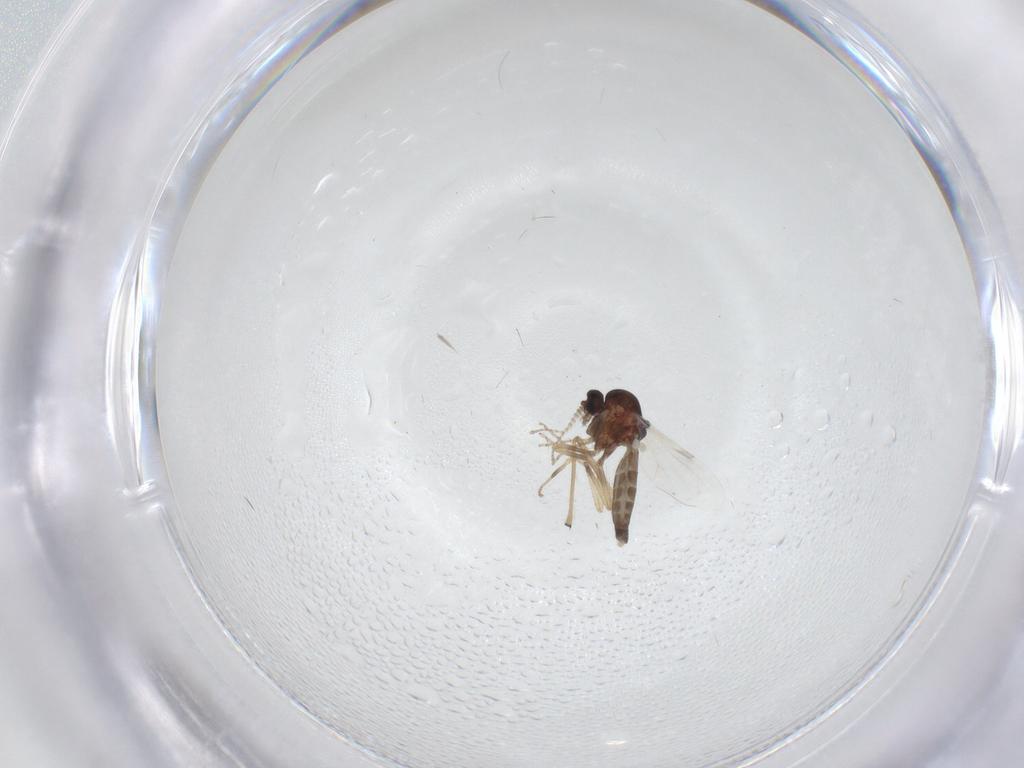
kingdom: Animalia
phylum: Arthropoda
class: Insecta
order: Diptera
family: Ceratopogonidae
